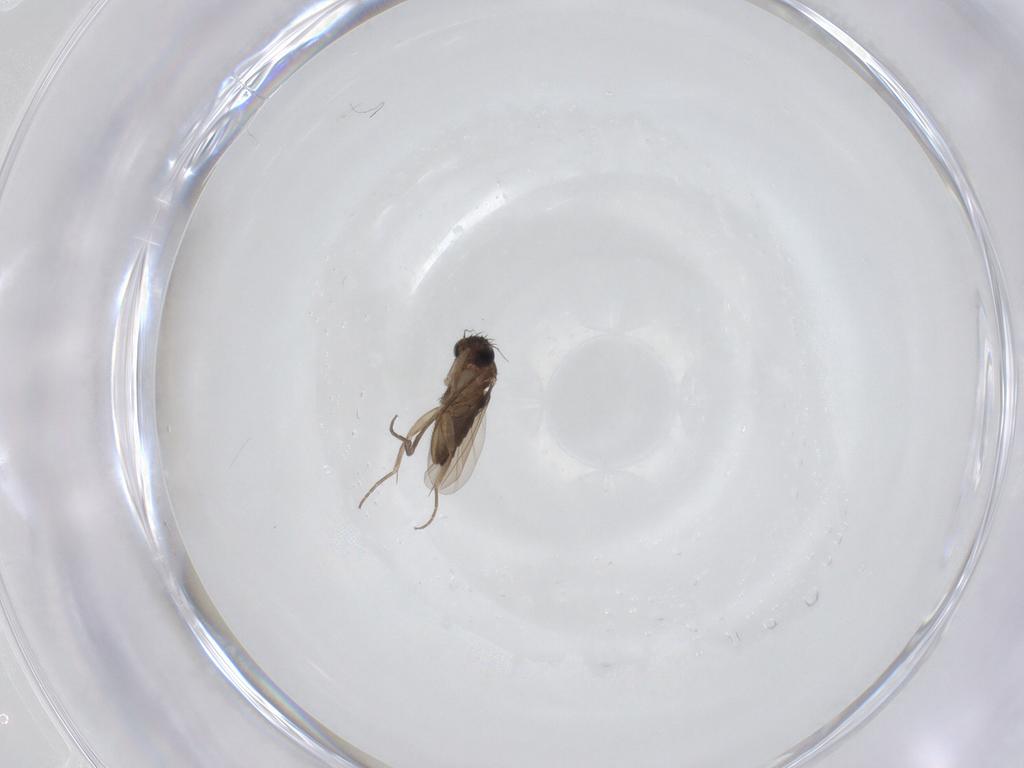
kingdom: Animalia
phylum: Arthropoda
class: Insecta
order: Diptera
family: Phoridae
